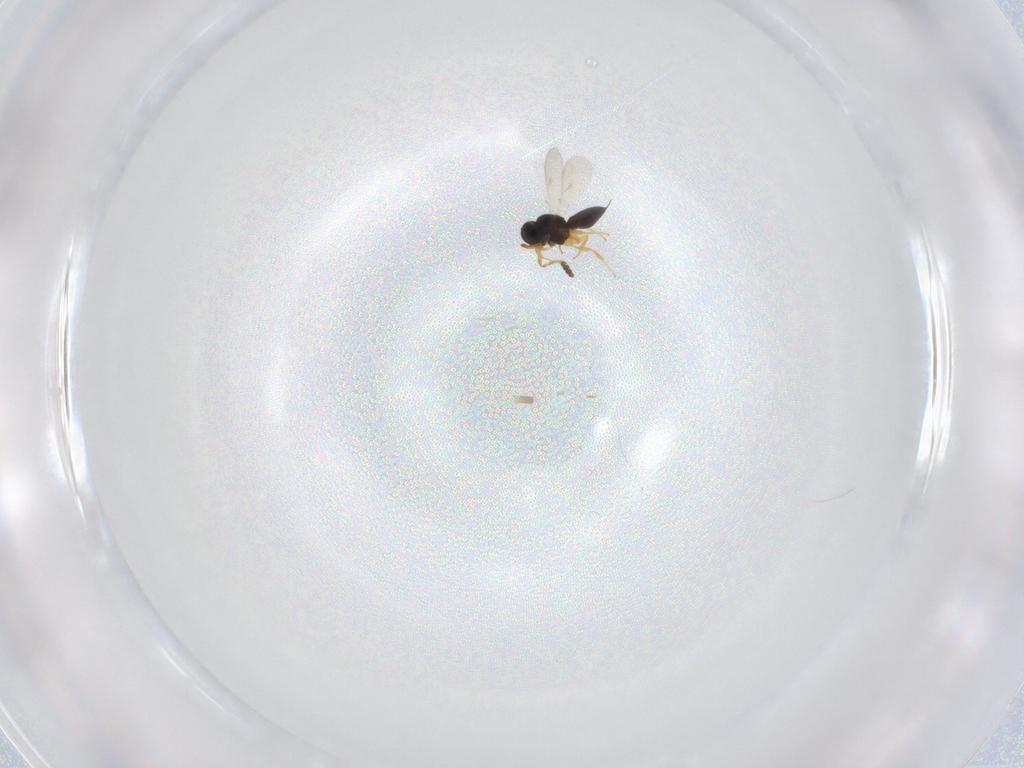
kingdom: Animalia
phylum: Arthropoda
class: Insecta
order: Hymenoptera
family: Scelionidae
